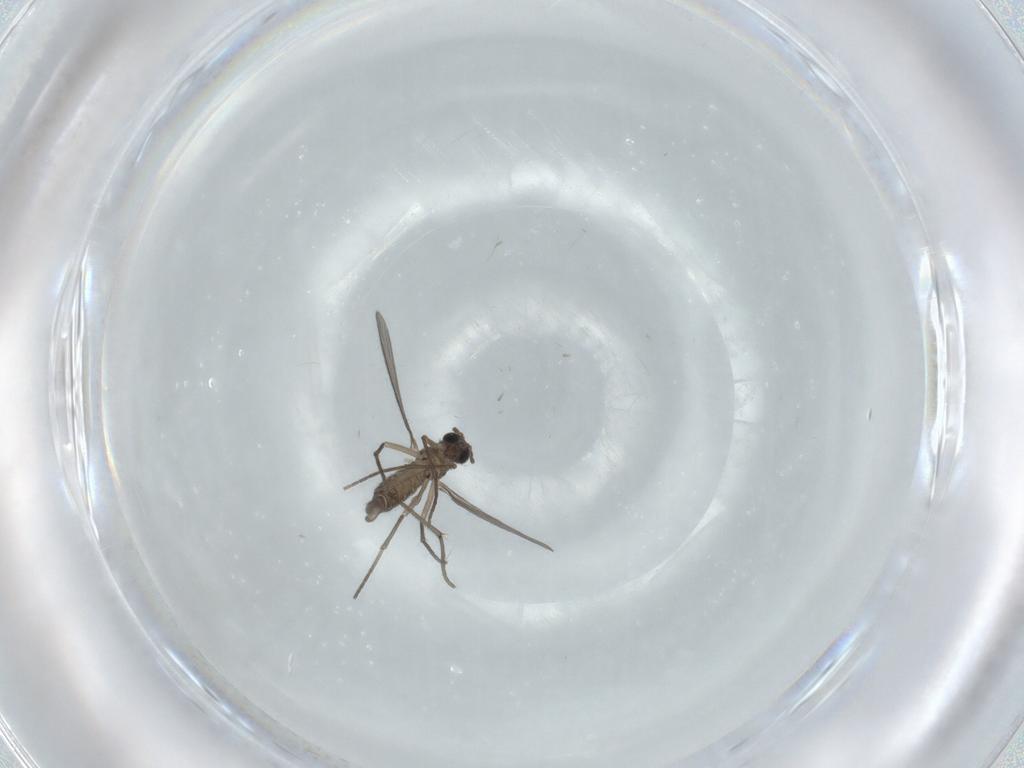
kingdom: Animalia
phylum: Arthropoda
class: Insecta
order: Diptera
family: Sciaridae
